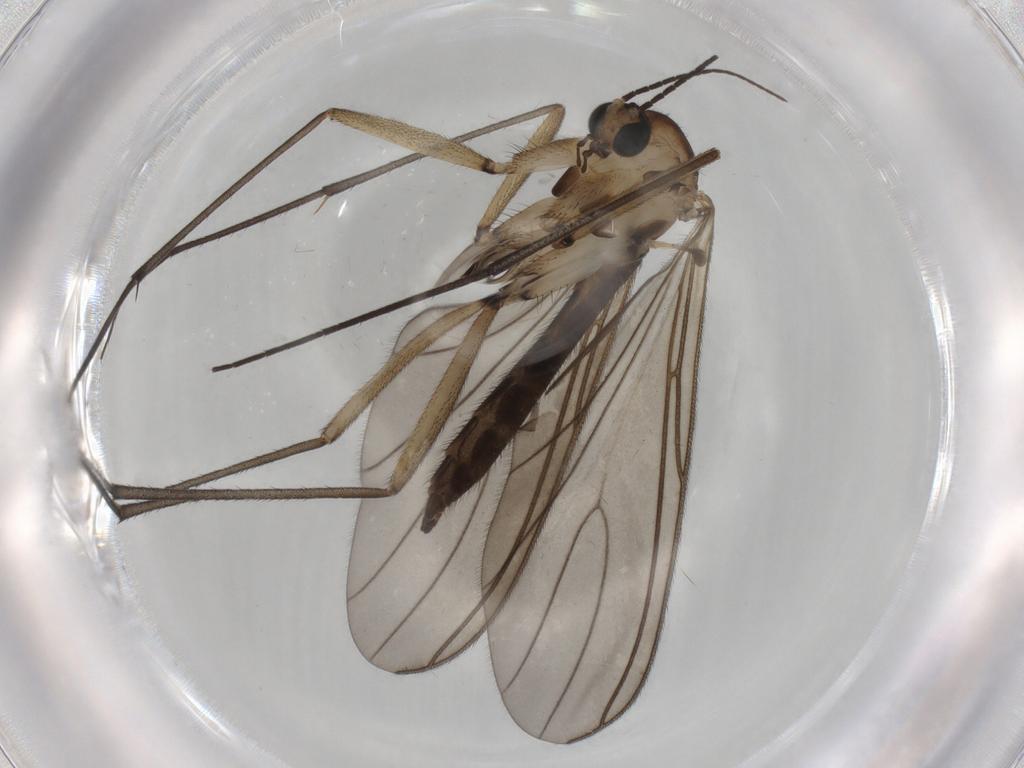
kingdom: Animalia
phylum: Arthropoda
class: Insecta
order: Diptera
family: Sciaridae
